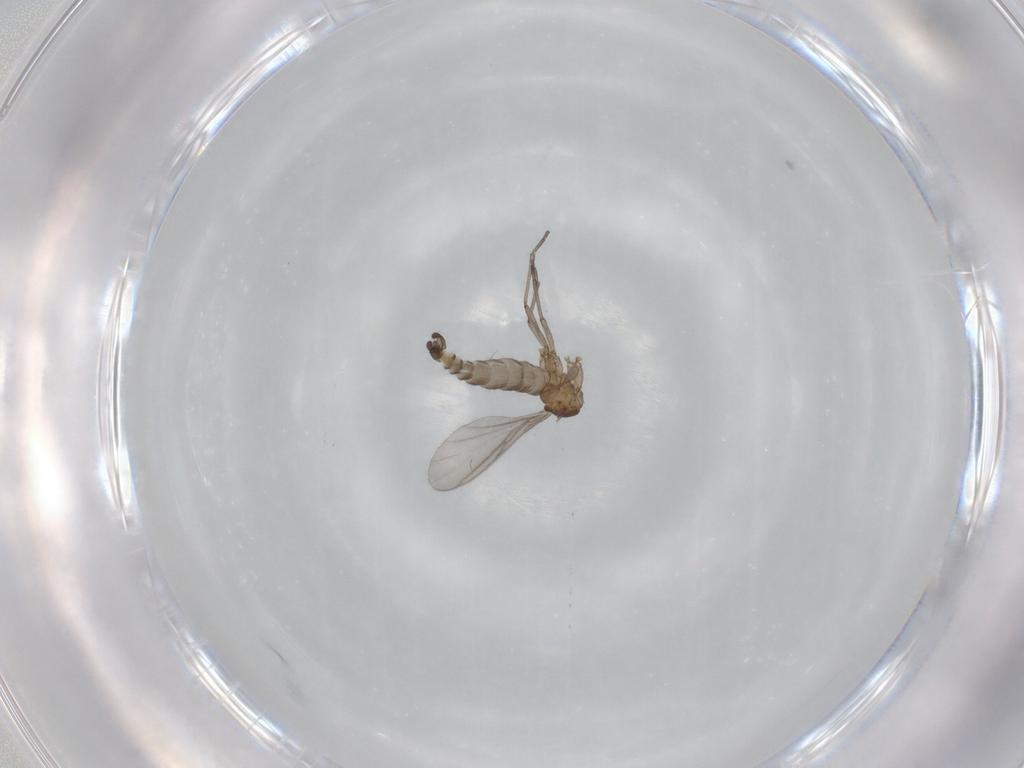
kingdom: Animalia
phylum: Arthropoda
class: Insecta
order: Diptera
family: Sciaridae
